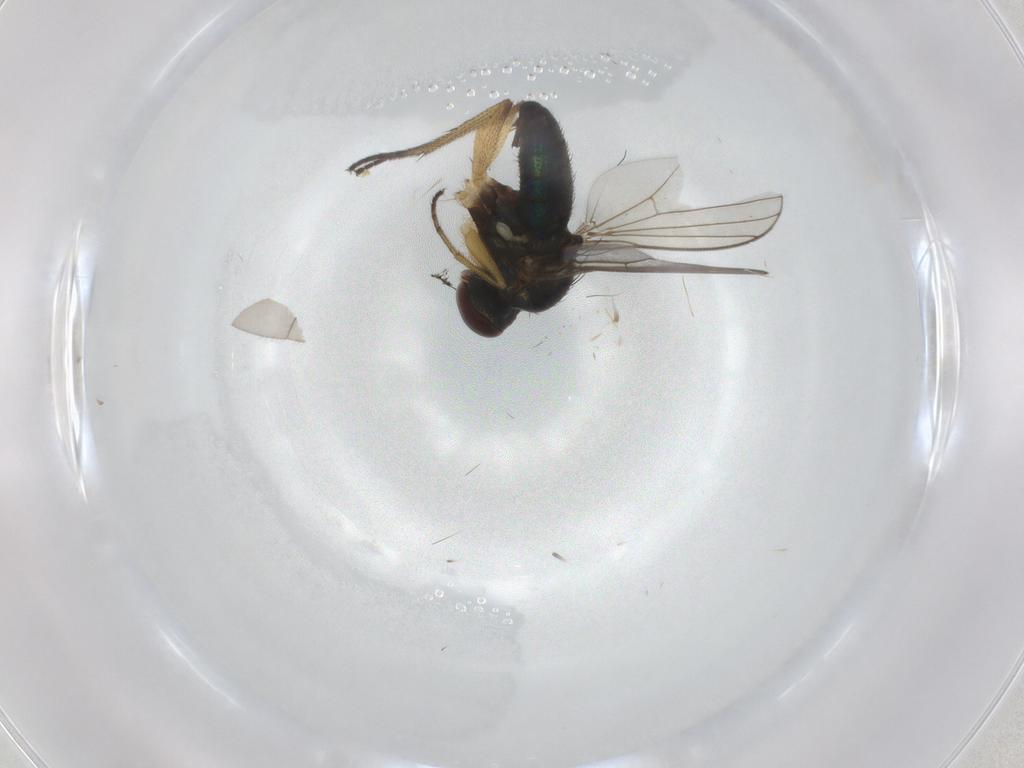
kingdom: Animalia
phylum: Arthropoda
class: Insecta
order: Diptera
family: Dolichopodidae
